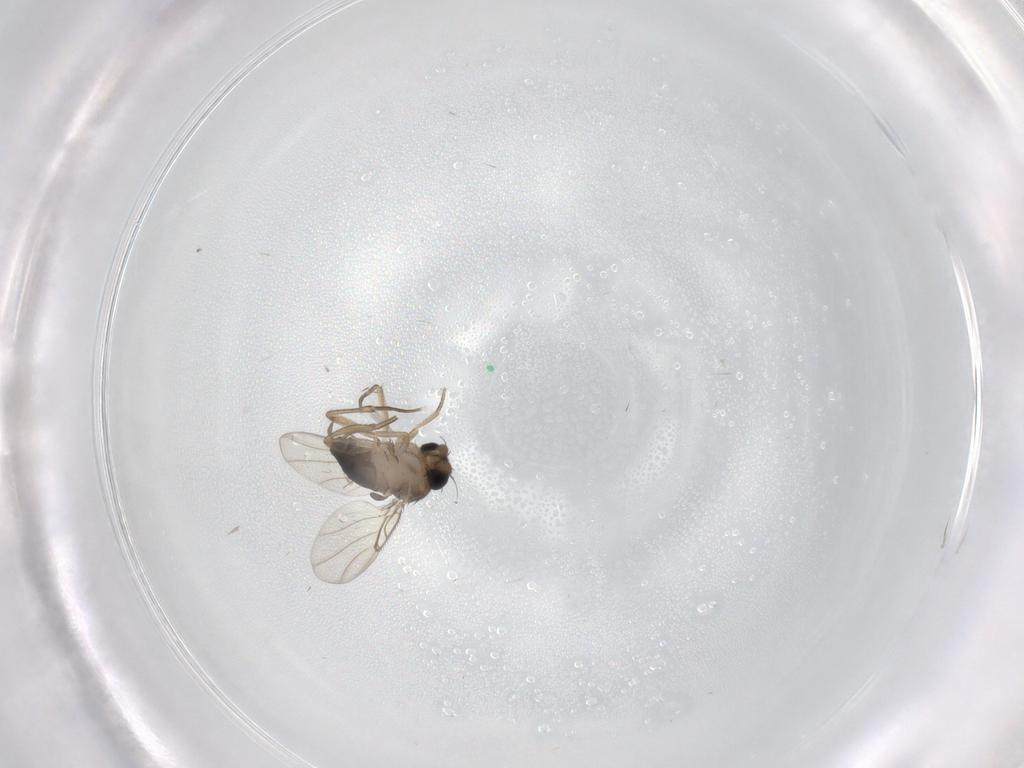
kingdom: Animalia
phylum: Arthropoda
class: Insecta
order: Diptera
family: Cecidomyiidae
